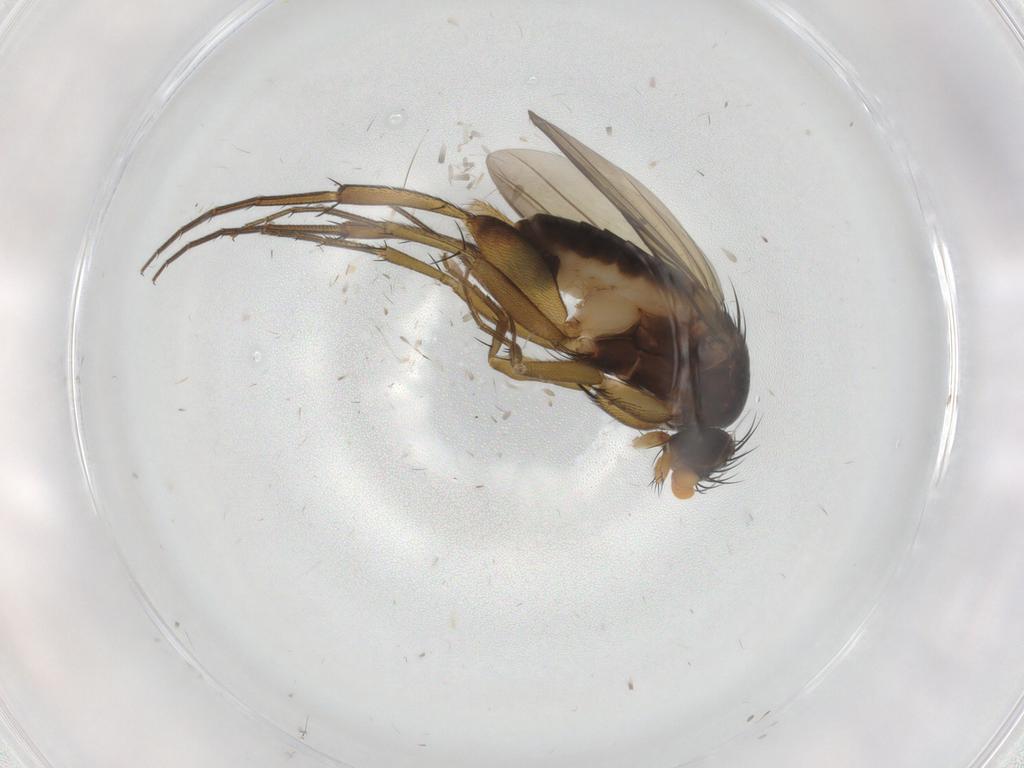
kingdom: Animalia
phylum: Arthropoda
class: Insecta
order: Diptera
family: Phoridae
